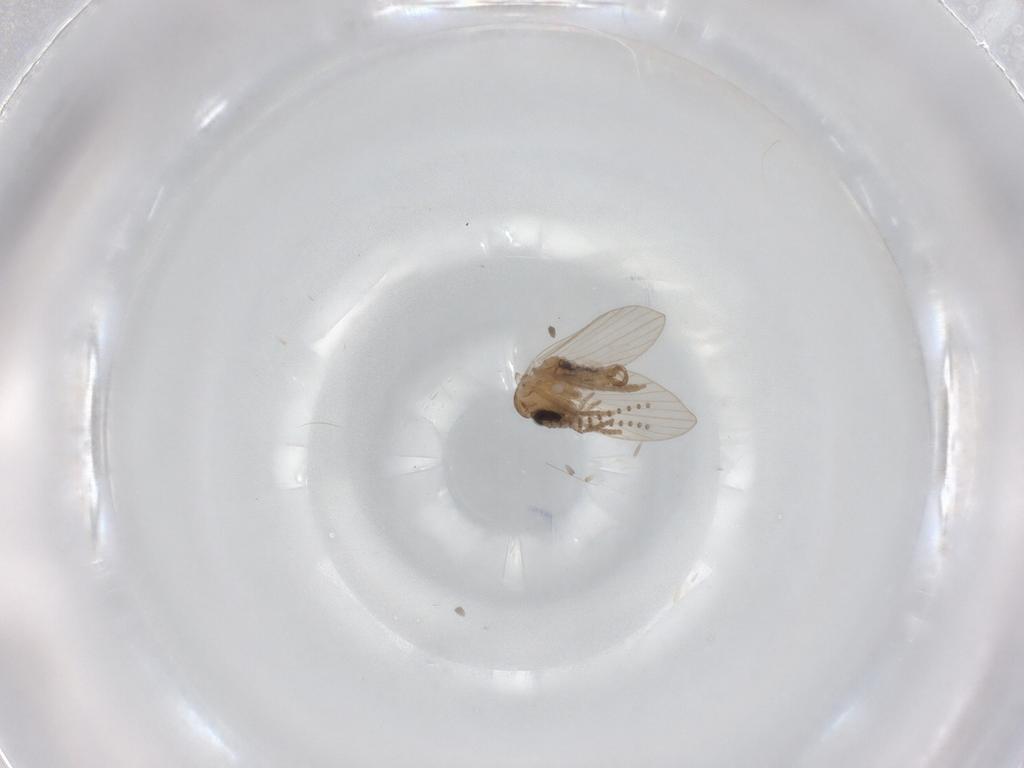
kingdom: Animalia
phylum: Arthropoda
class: Insecta
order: Diptera
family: Psychodidae
